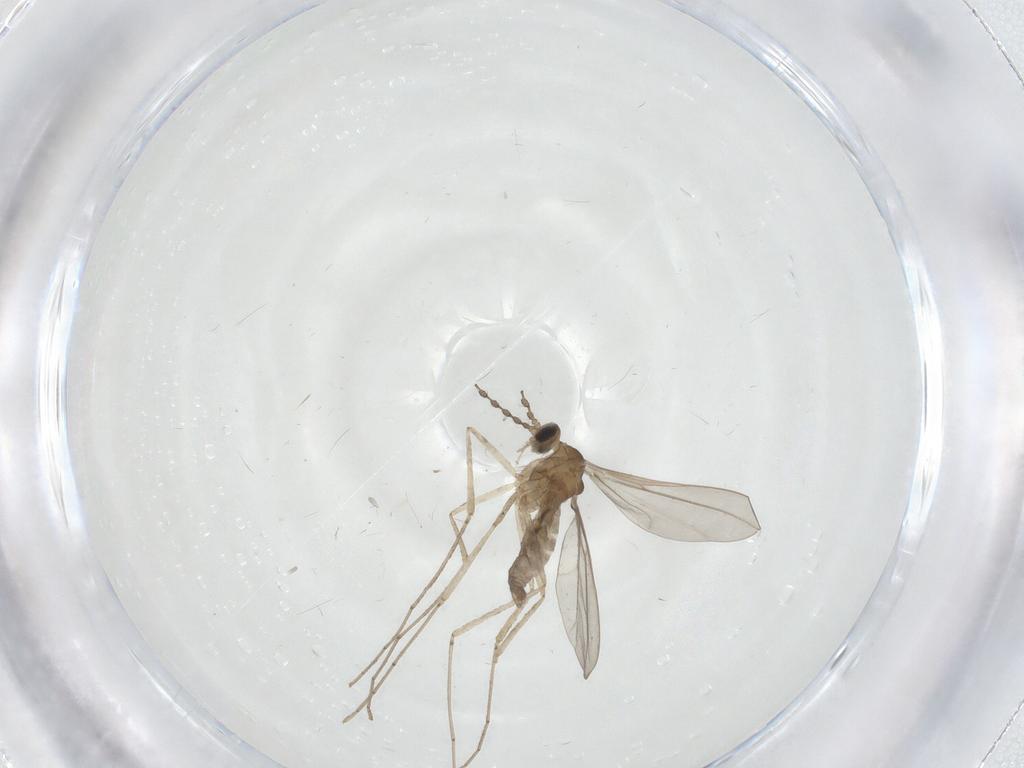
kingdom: Animalia
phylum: Arthropoda
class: Insecta
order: Diptera
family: Cecidomyiidae
